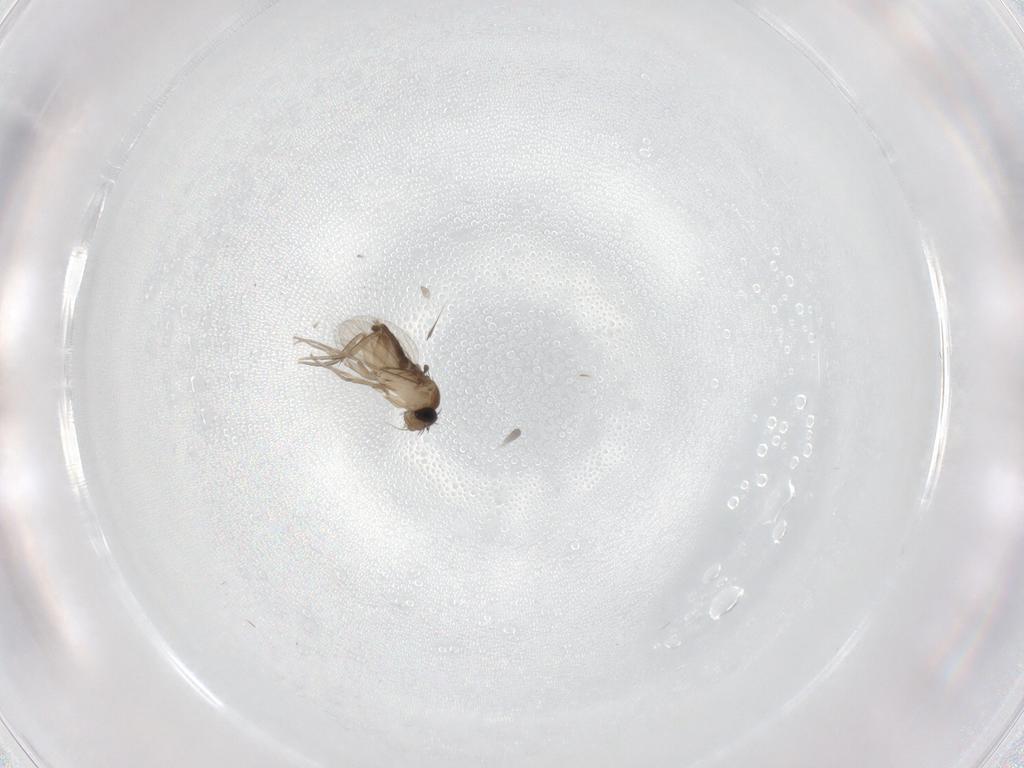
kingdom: Animalia
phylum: Arthropoda
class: Insecta
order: Diptera
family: Phoridae
